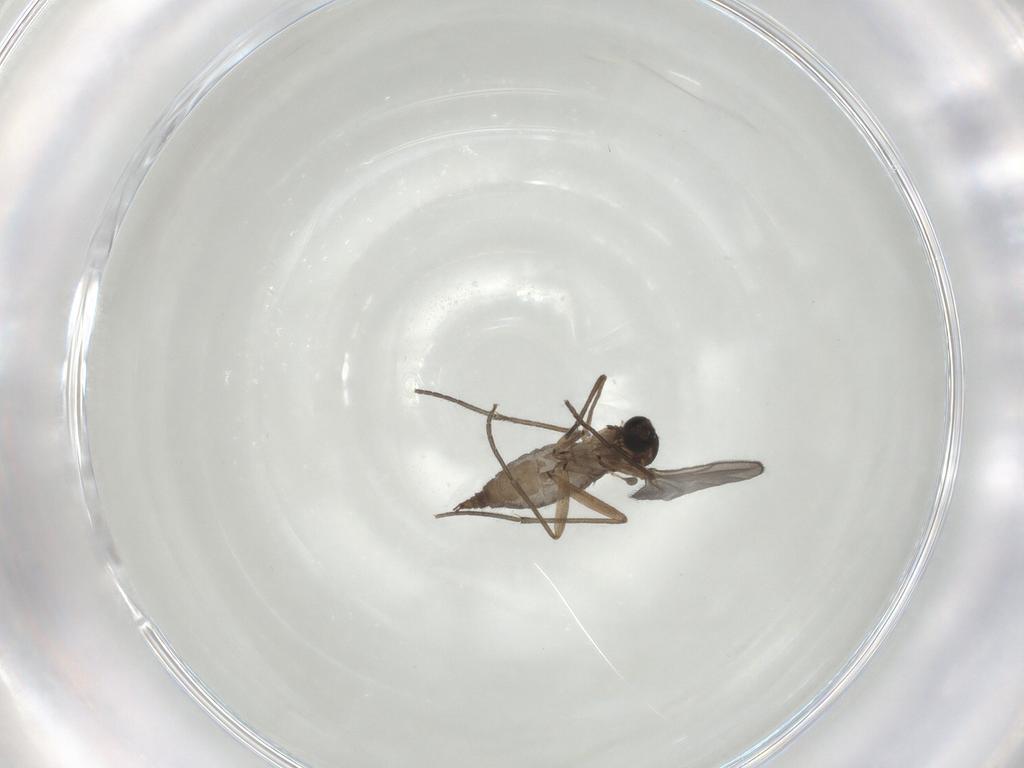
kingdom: Animalia
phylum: Arthropoda
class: Insecta
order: Diptera
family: Sciaridae
